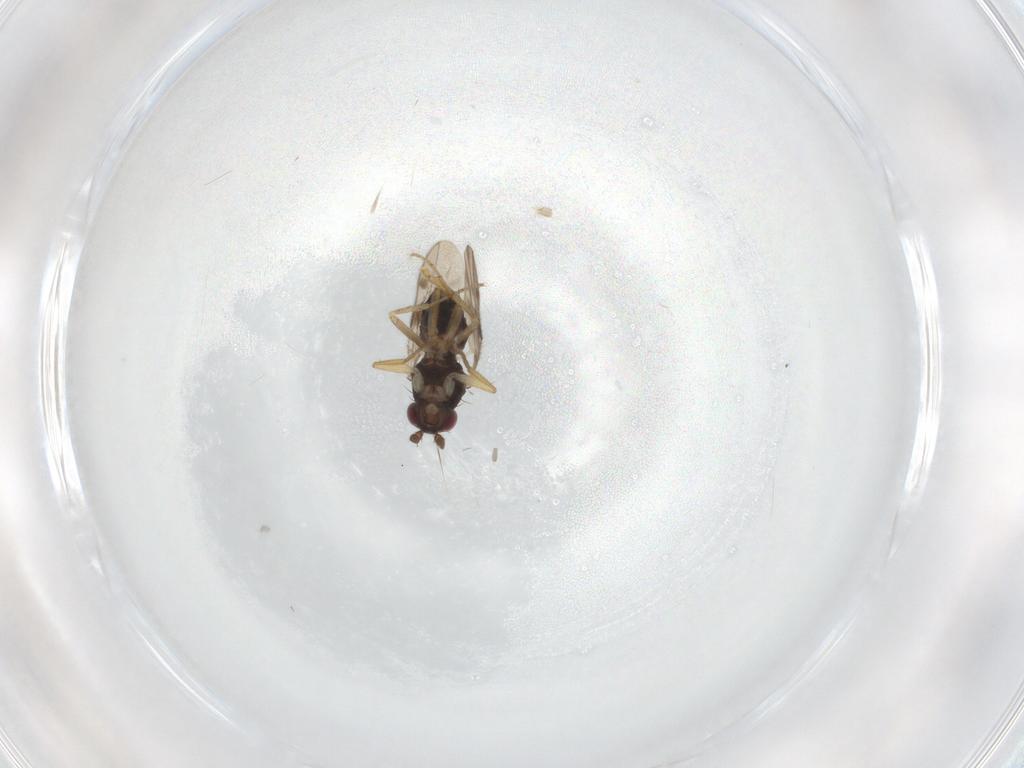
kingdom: Animalia
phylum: Arthropoda
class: Insecta
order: Diptera
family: Sphaeroceridae
